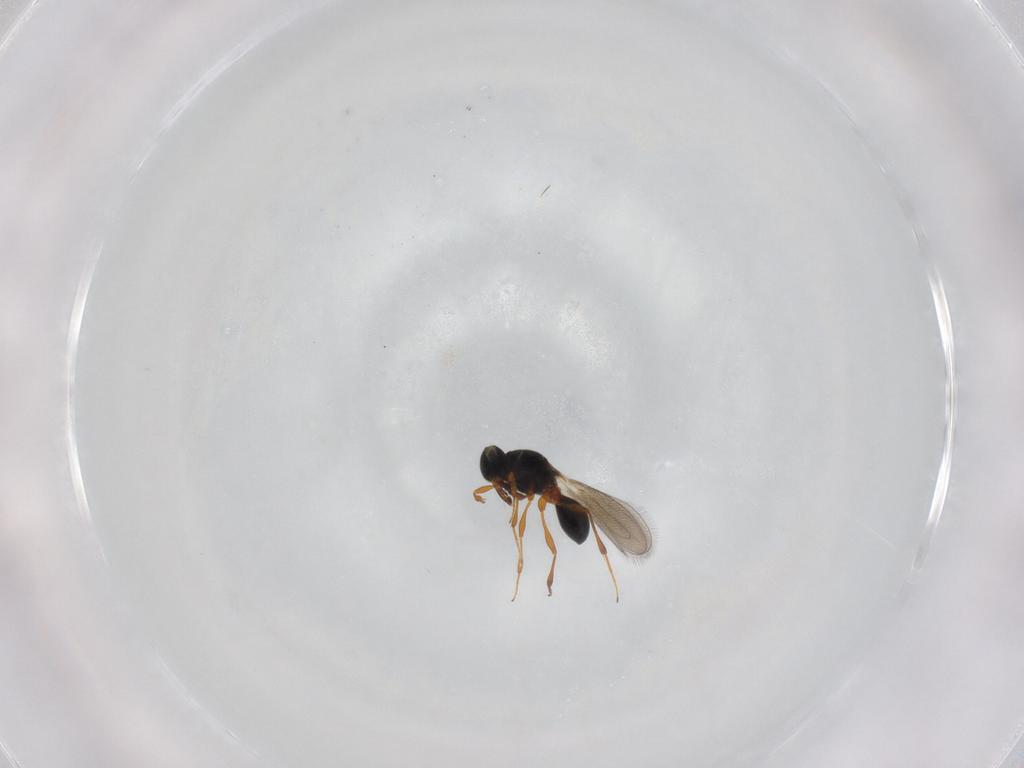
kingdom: Animalia
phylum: Arthropoda
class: Insecta
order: Hymenoptera
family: Platygastridae
